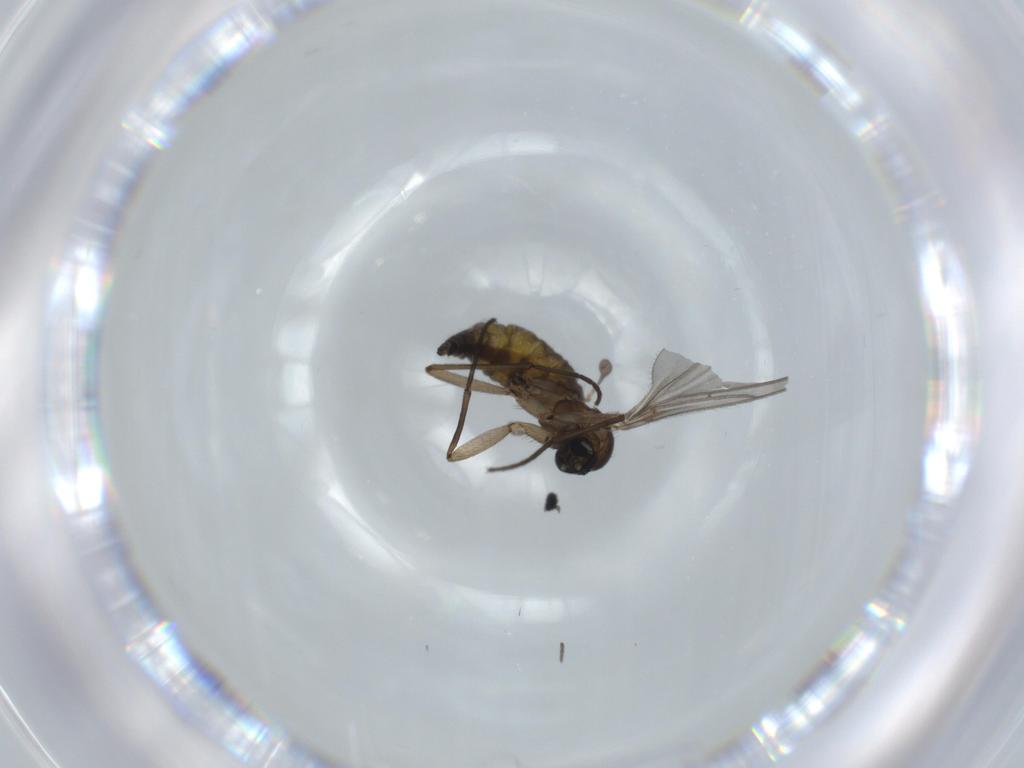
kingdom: Animalia
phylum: Arthropoda
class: Insecta
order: Diptera
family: Sciaridae
